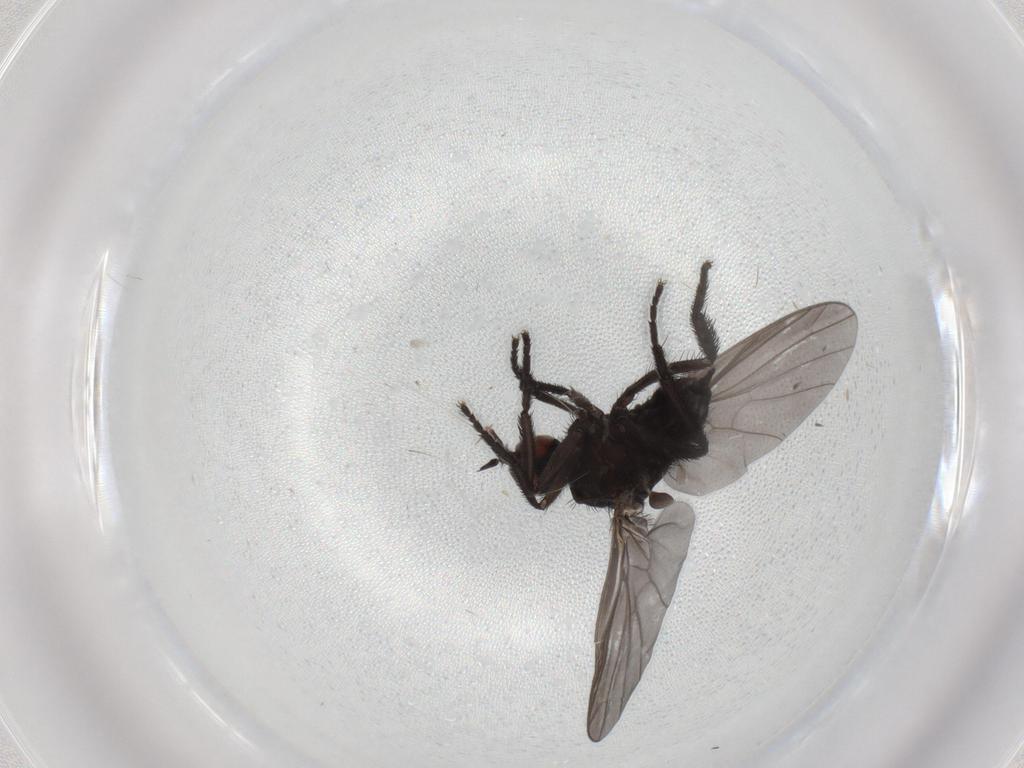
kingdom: Animalia
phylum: Arthropoda
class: Insecta
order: Diptera
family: Empididae
